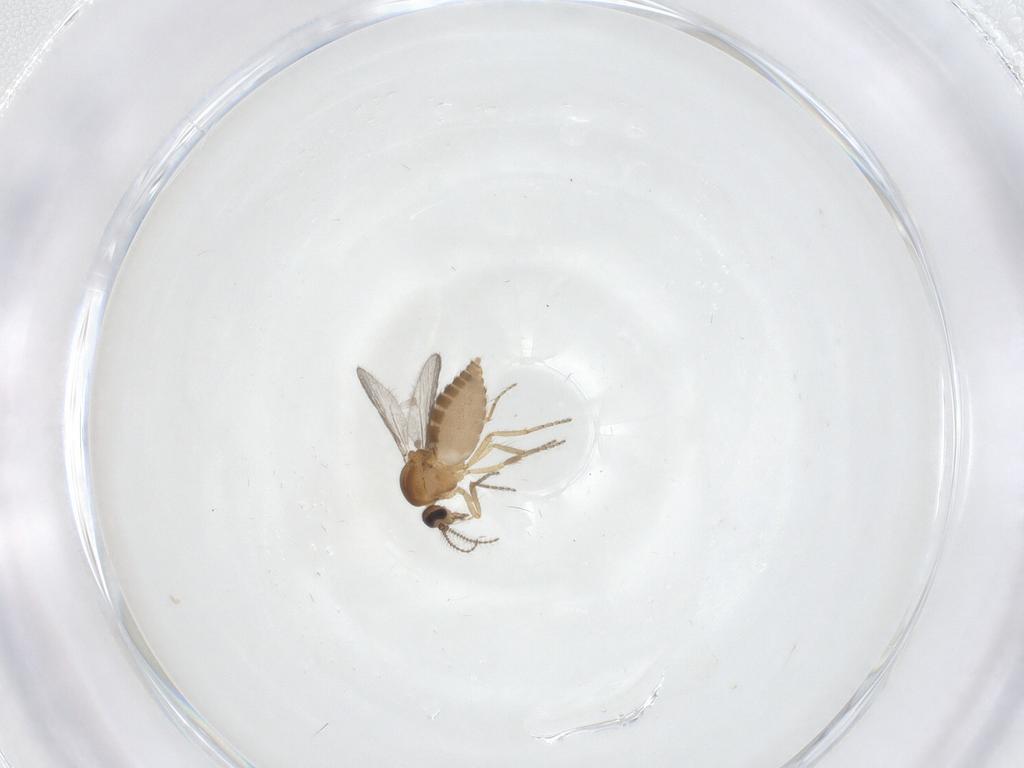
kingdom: Animalia
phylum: Arthropoda
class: Insecta
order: Diptera
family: Ceratopogonidae
